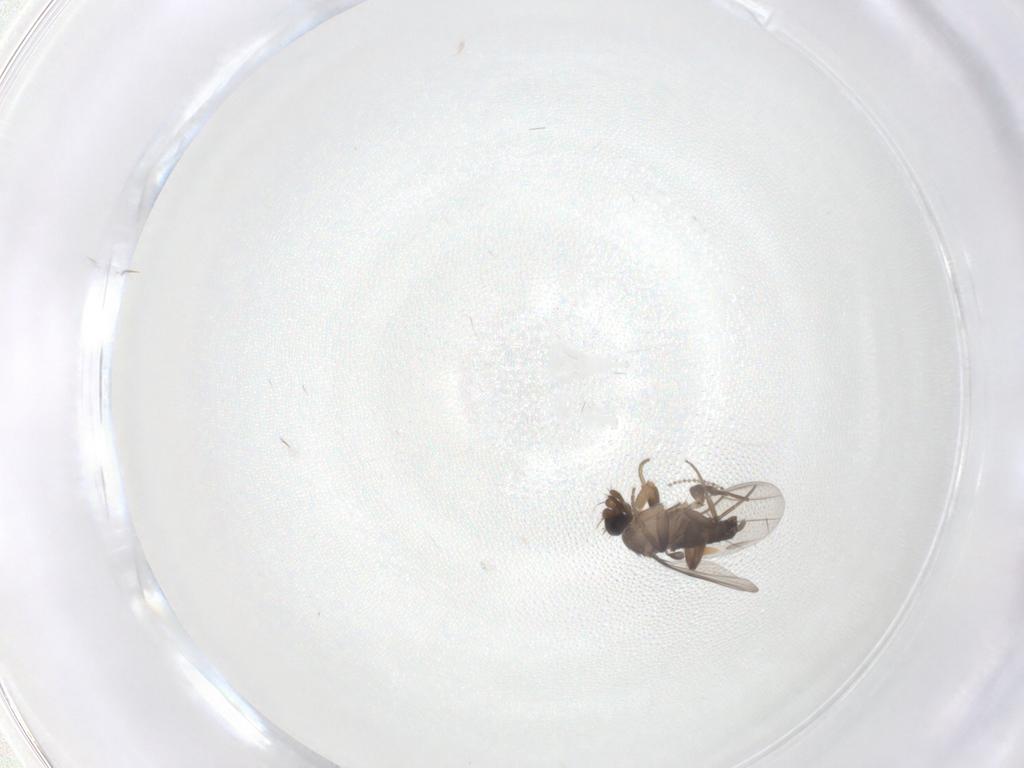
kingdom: Animalia
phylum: Arthropoda
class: Insecta
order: Diptera
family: Phoridae
